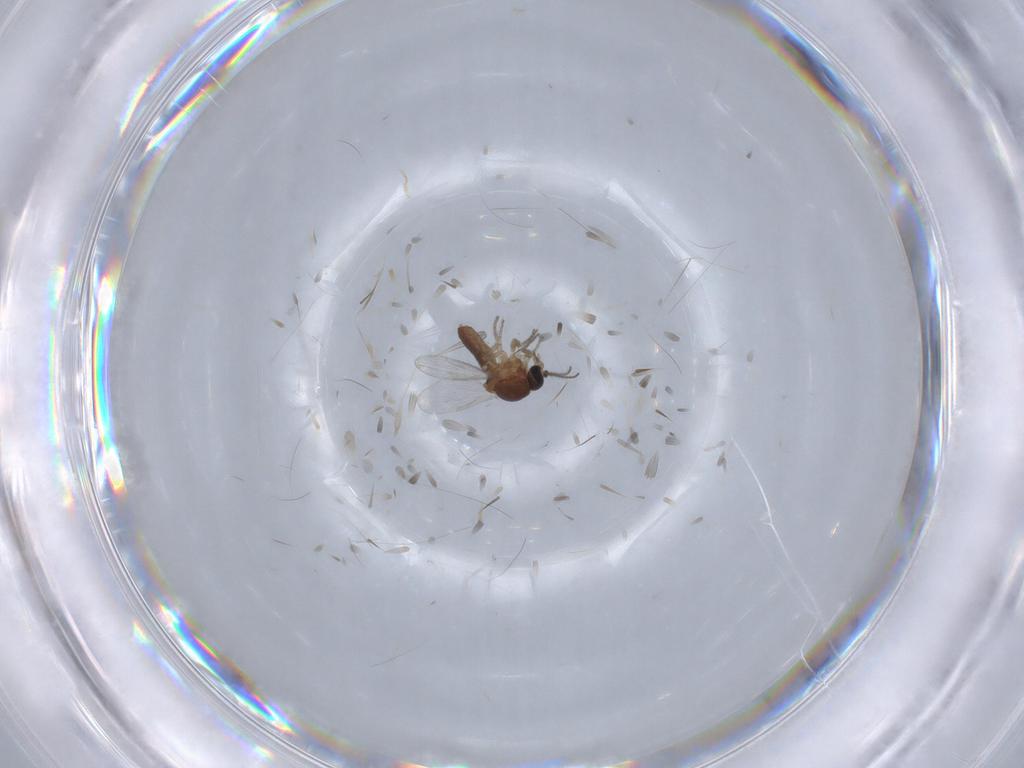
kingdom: Animalia
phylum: Arthropoda
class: Insecta
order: Diptera
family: Ceratopogonidae
